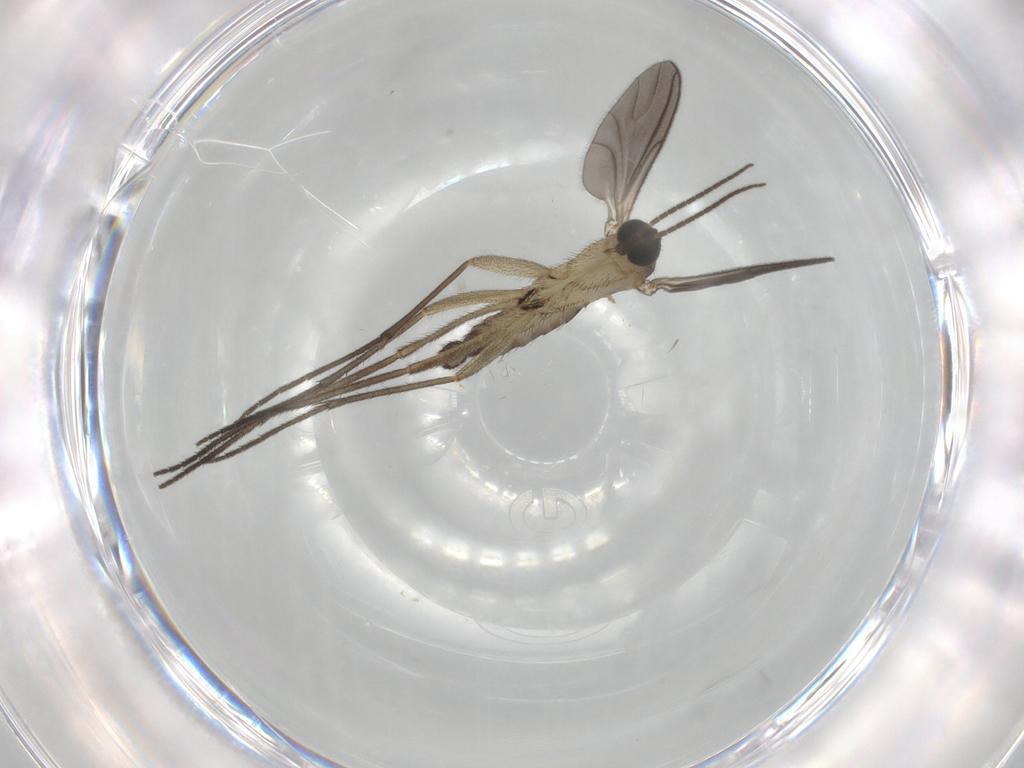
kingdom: Animalia
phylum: Arthropoda
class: Insecta
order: Diptera
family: Sciaridae
